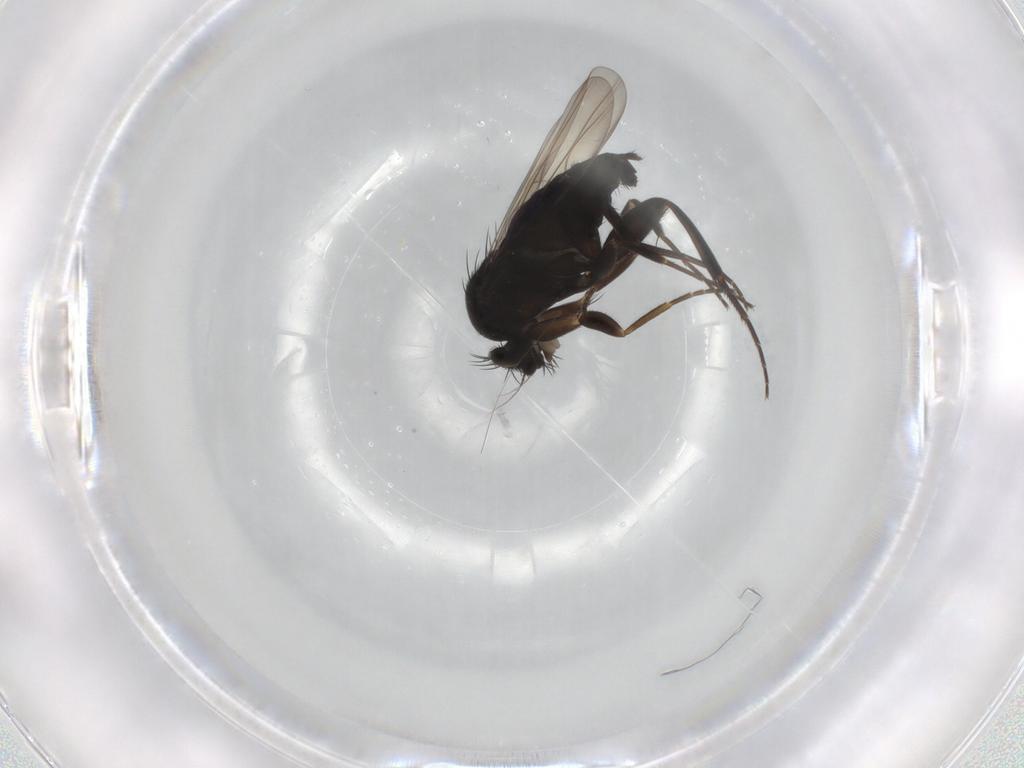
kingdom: Animalia
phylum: Arthropoda
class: Insecta
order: Diptera
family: Phoridae
